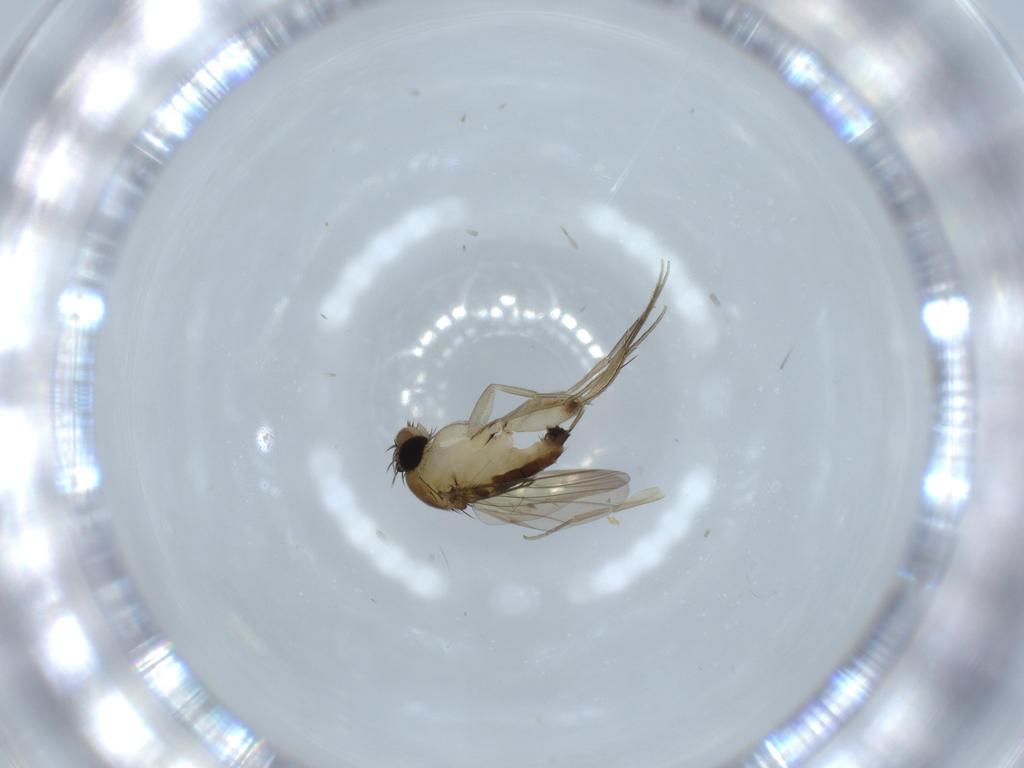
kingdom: Animalia
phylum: Arthropoda
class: Insecta
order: Diptera
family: Phoridae
